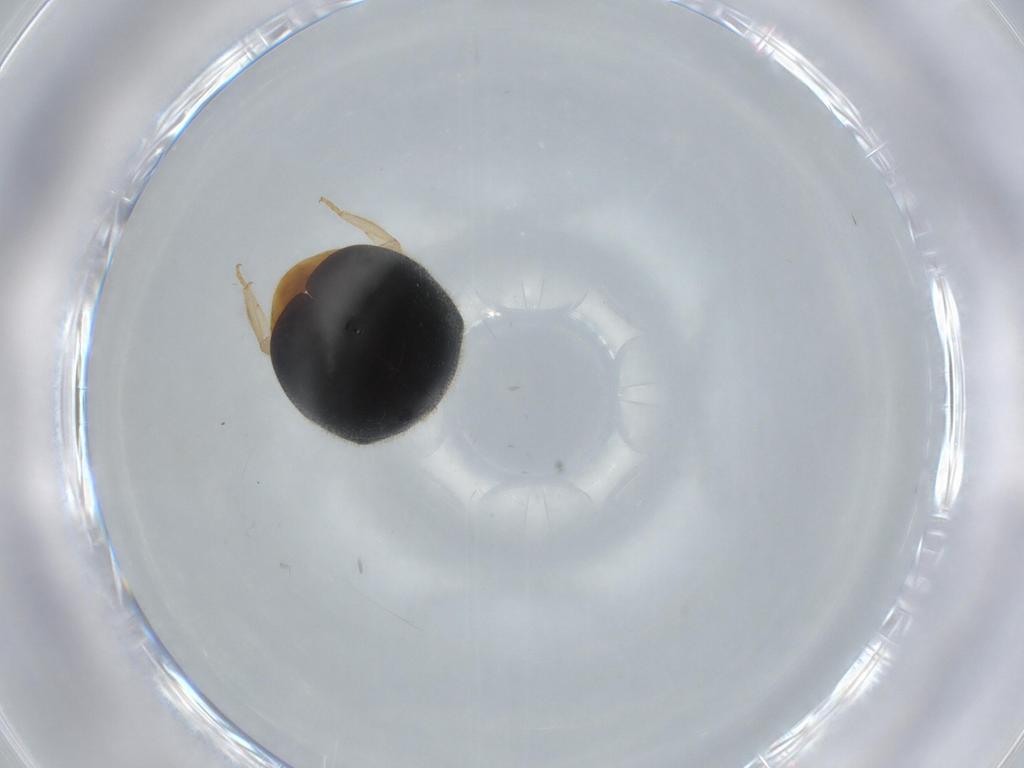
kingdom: Animalia
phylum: Arthropoda
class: Insecta
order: Coleoptera
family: Coccinellidae
